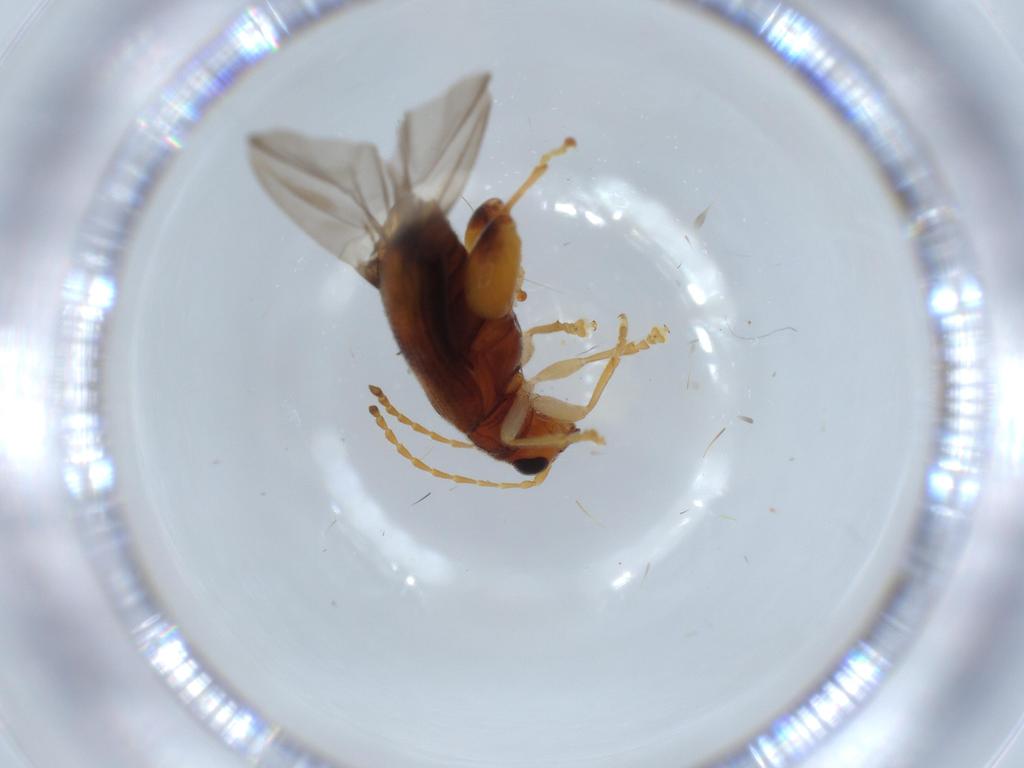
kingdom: Animalia
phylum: Arthropoda
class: Insecta
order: Coleoptera
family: Chrysomelidae
